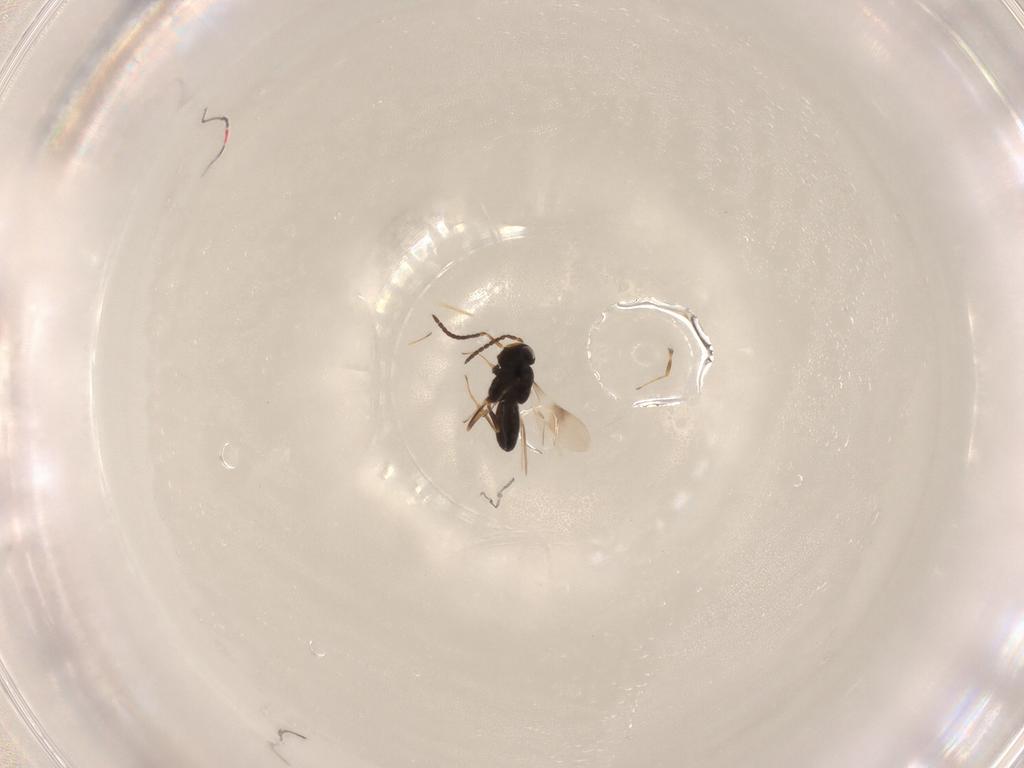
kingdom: Animalia
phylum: Arthropoda
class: Insecta
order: Hymenoptera
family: Scelionidae
